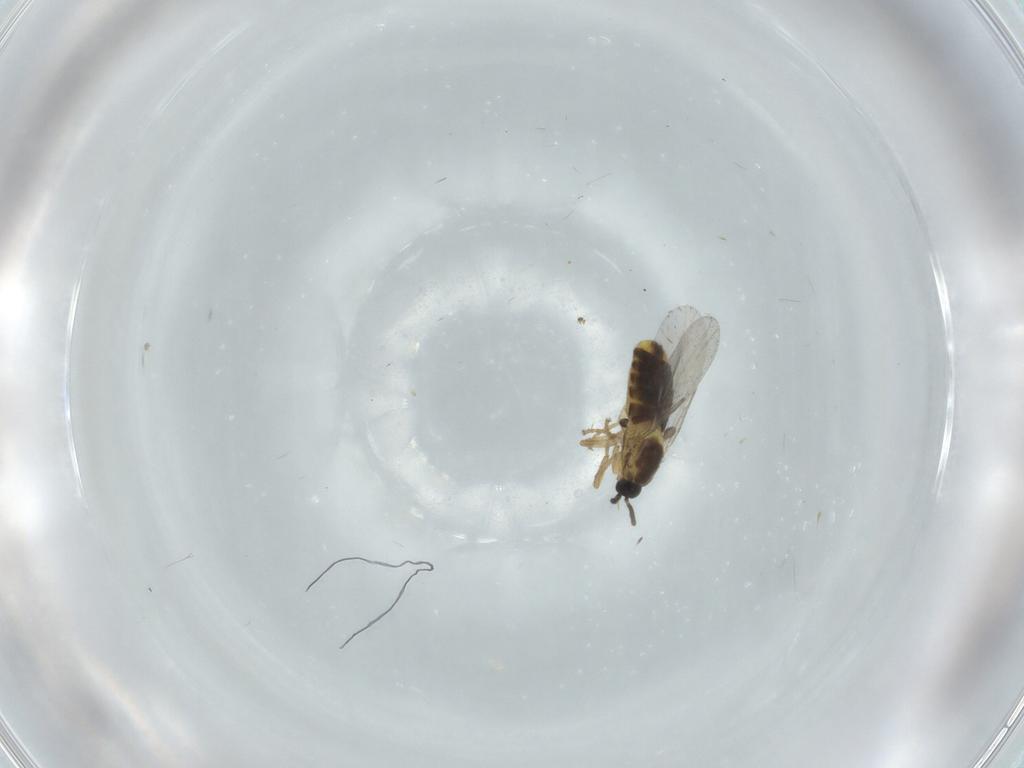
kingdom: Animalia
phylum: Arthropoda
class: Insecta
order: Diptera
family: Scatopsidae
